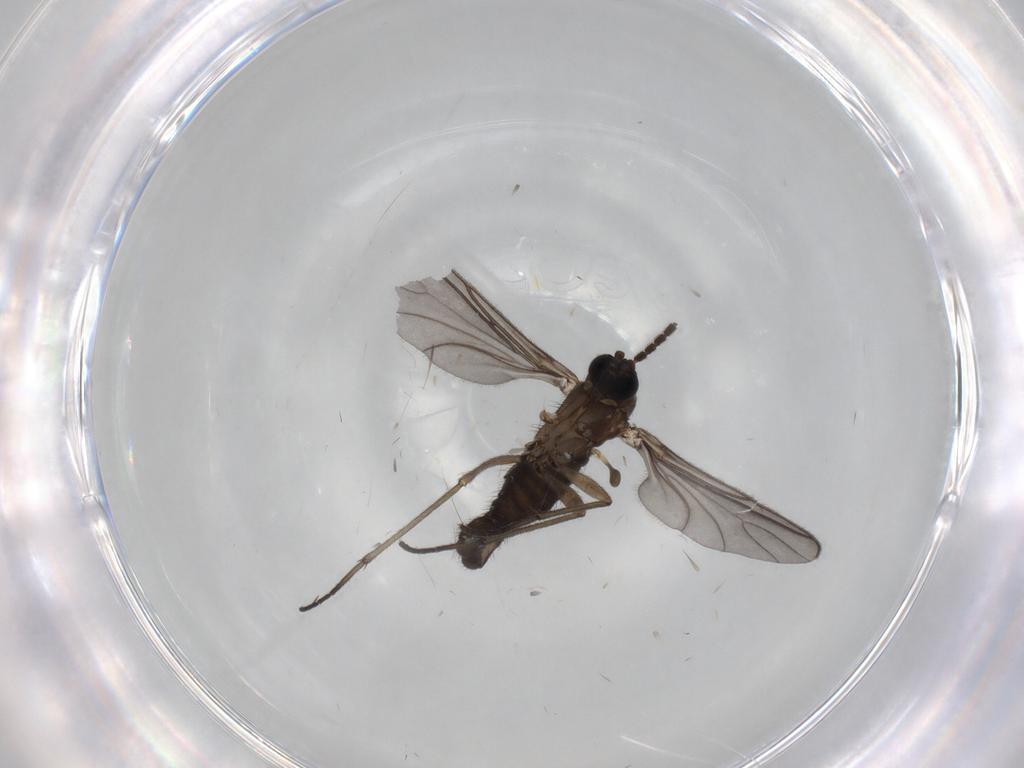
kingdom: Animalia
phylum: Arthropoda
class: Insecta
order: Diptera
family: Sciaridae
